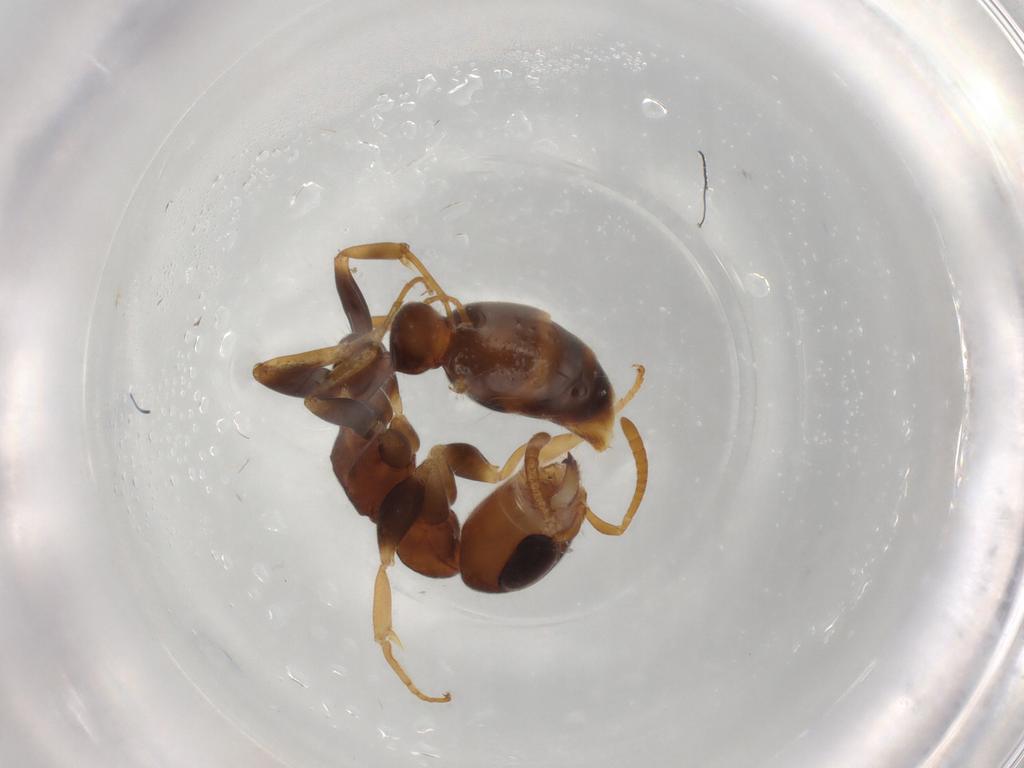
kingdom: Animalia
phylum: Arthropoda
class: Insecta
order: Hymenoptera
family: Formicidae
